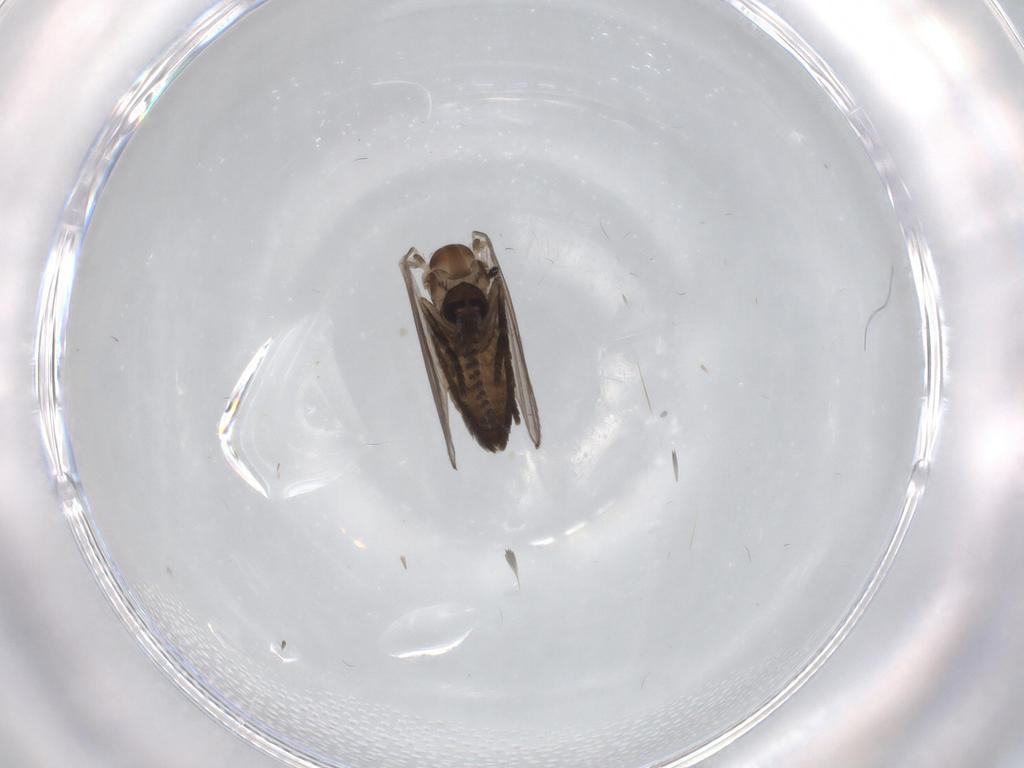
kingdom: Animalia
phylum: Arthropoda
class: Insecta
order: Diptera
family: Sciaridae
